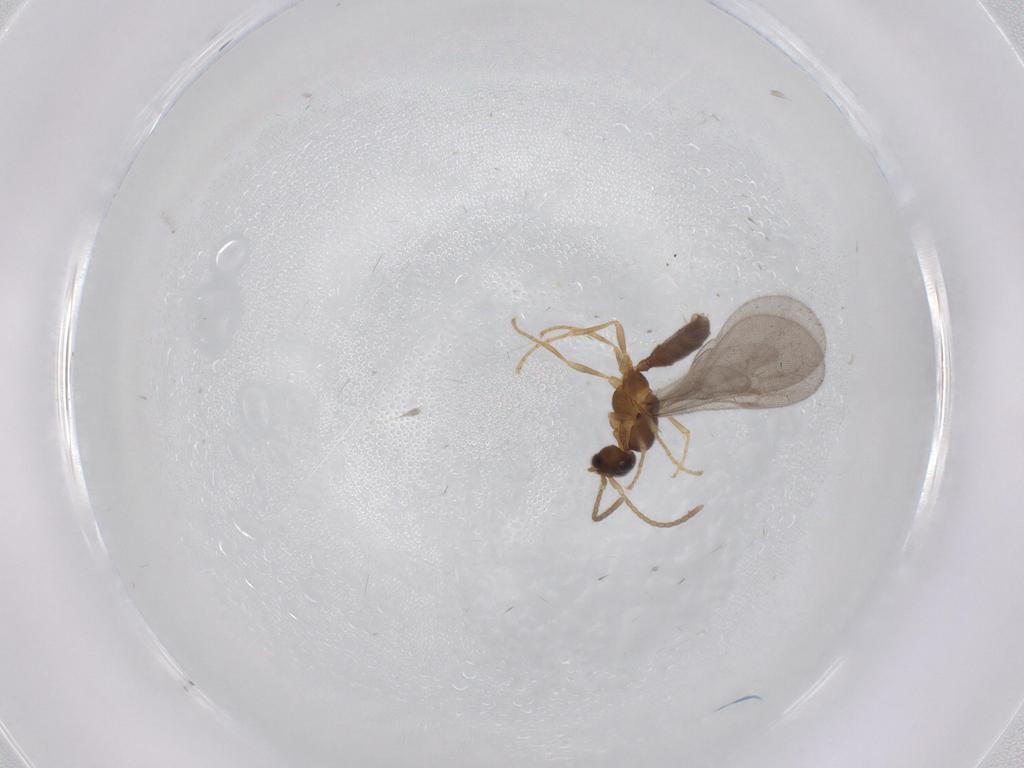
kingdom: Animalia
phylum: Arthropoda
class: Insecta
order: Hymenoptera
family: Formicidae
